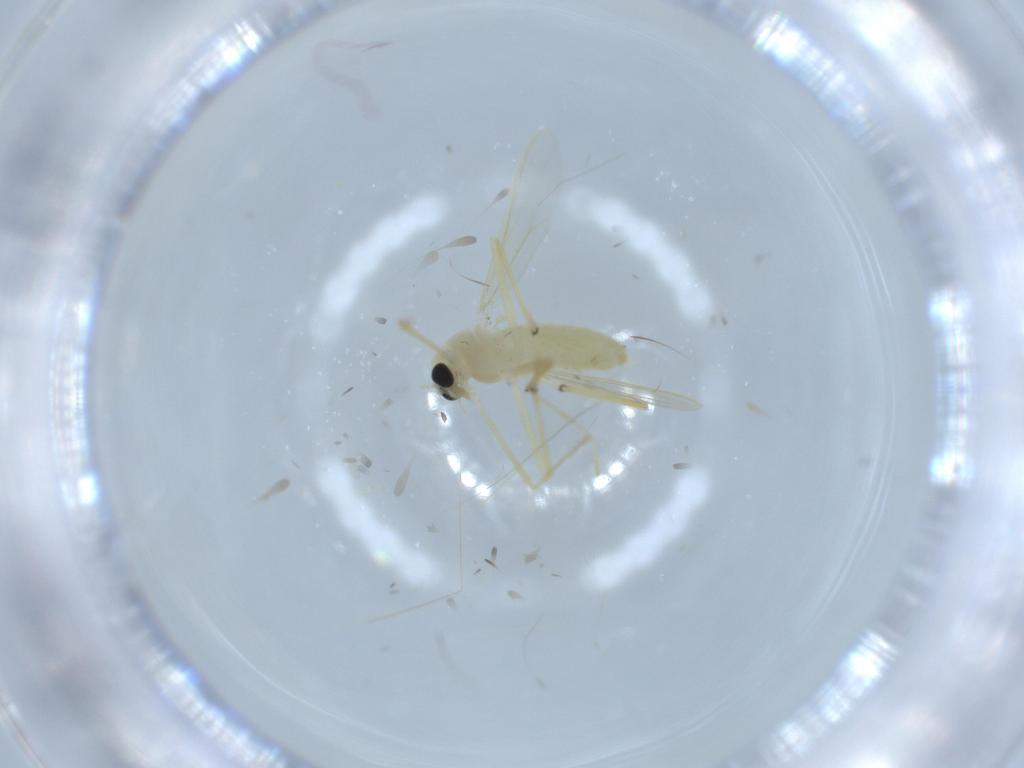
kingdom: Animalia
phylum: Arthropoda
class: Insecta
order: Diptera
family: Chironomidae
